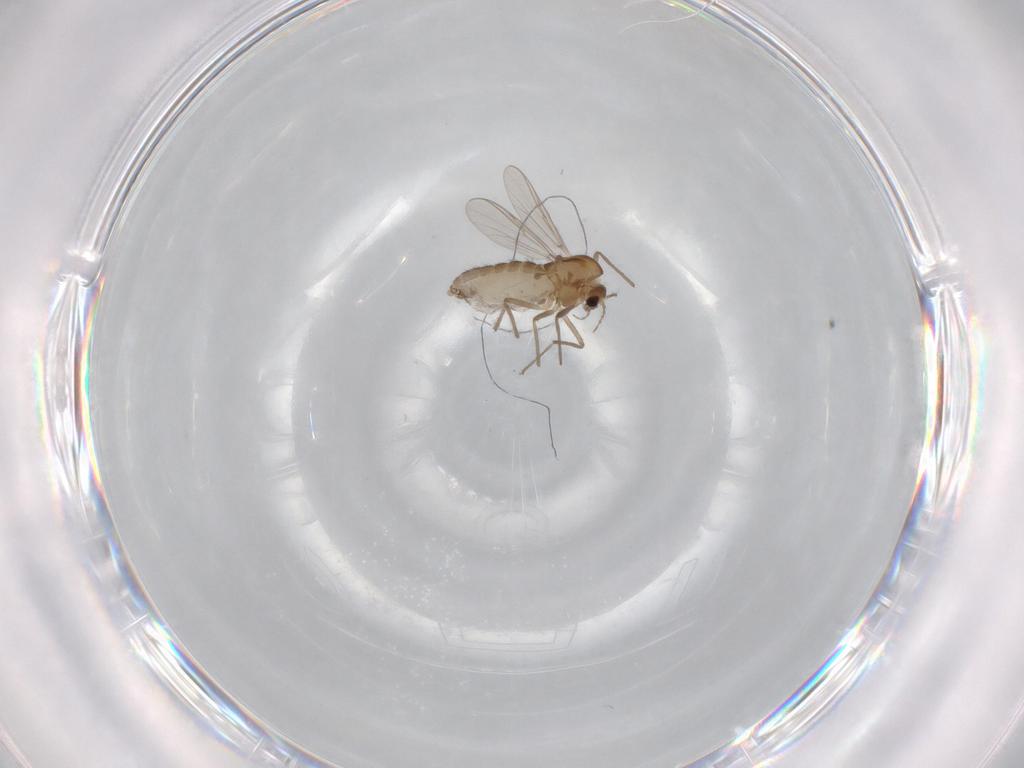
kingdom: Animalia
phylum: Arthropoda
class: Insecta
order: Diptera
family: Chironomidae
